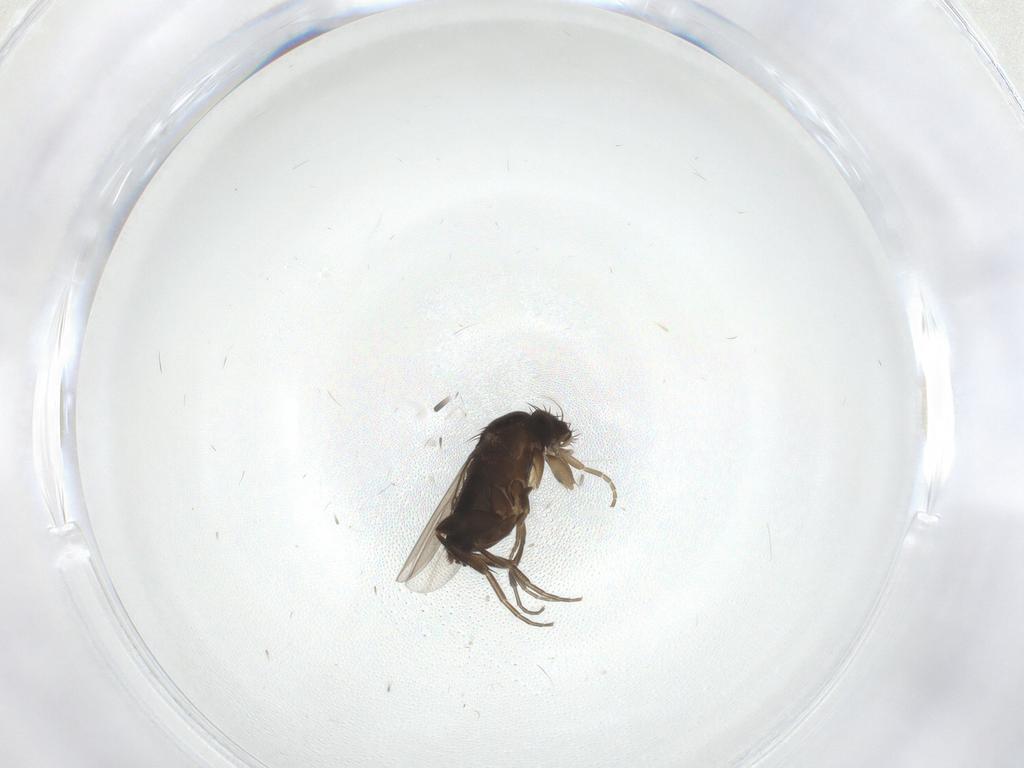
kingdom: Animalia
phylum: Arthropoda
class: Insecta
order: Diptera
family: Phoridae
